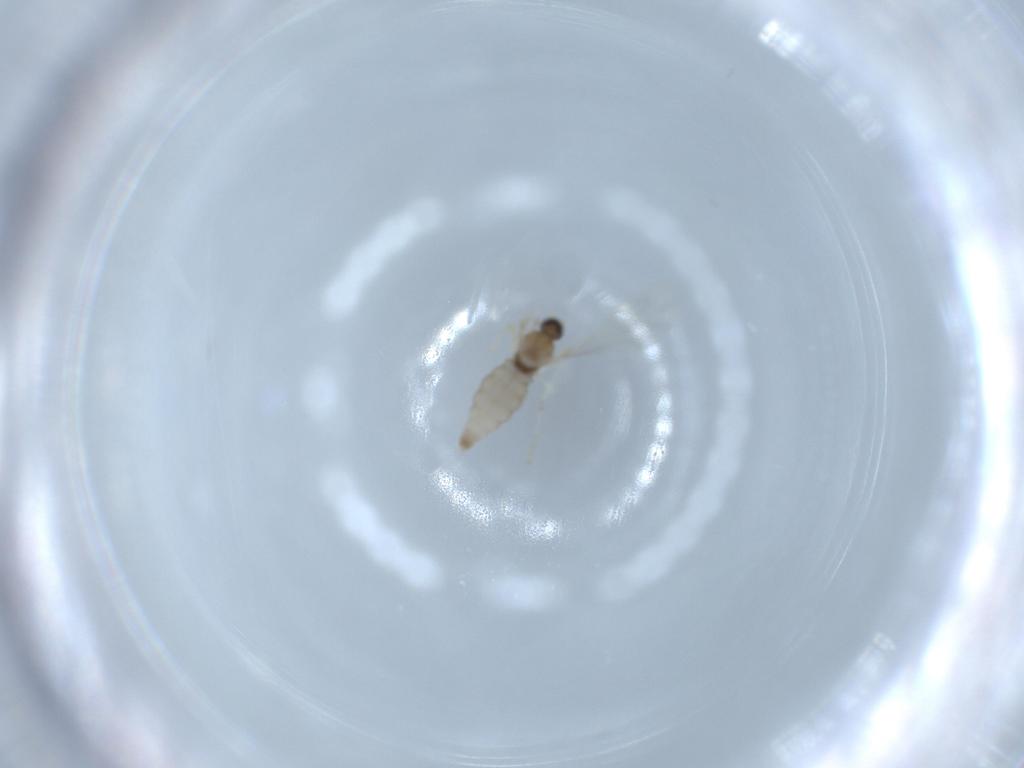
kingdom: Animalia
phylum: Arthropoda
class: Insecta
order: Diptera
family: Cecidomyiidae
